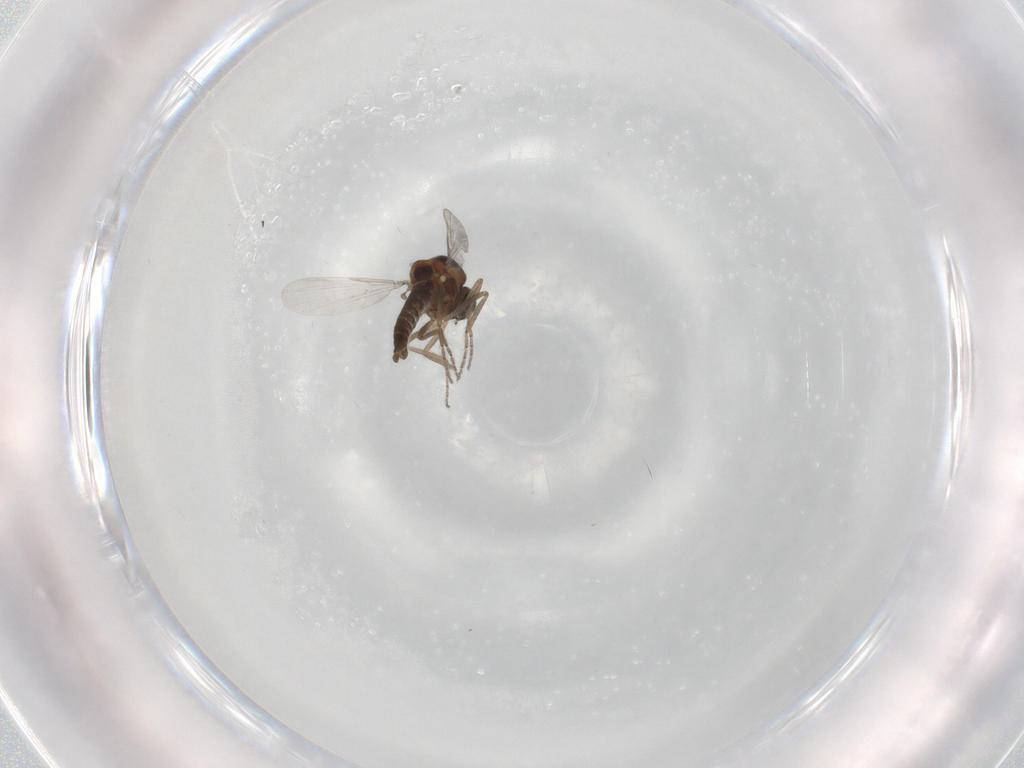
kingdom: Animalia
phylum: Arthropoda
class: Insecta
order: Diptera
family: Ceratopogonidae
